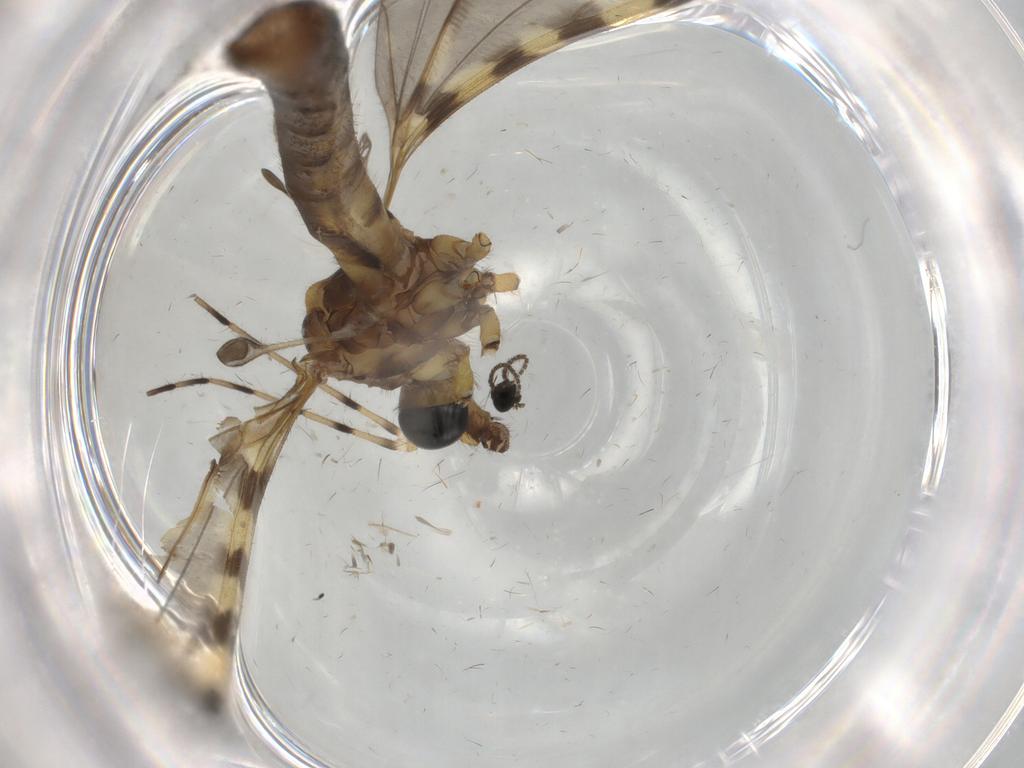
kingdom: Animalia
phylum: Arthropoda
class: Insecta
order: Diptera
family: Psychodidae
